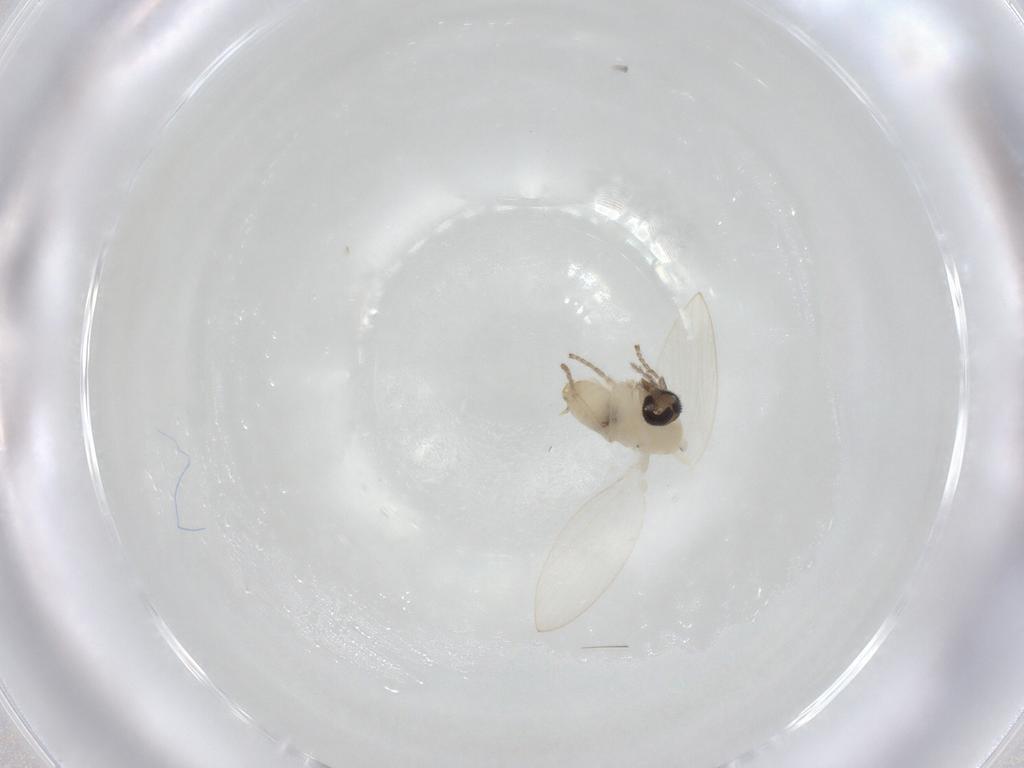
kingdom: Animalia
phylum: Arthropoda
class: Insecta
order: Diptera
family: Psychodidae
